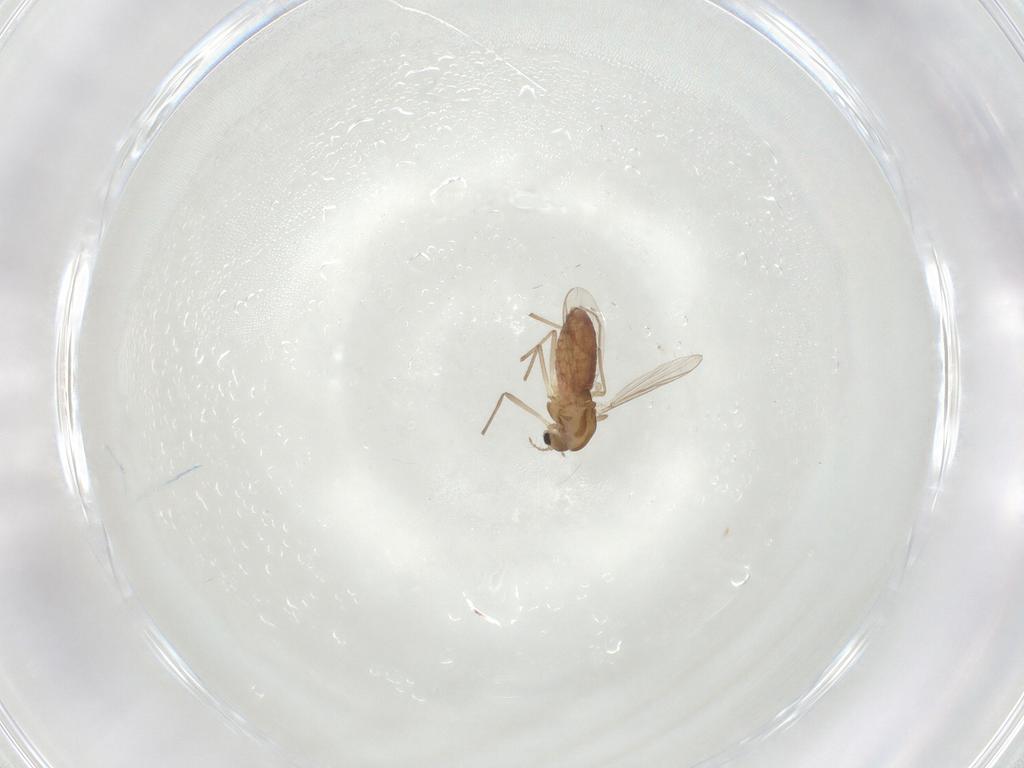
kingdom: Animalia
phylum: Arthropoda
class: Insecta
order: Diptera
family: Chironomidae
